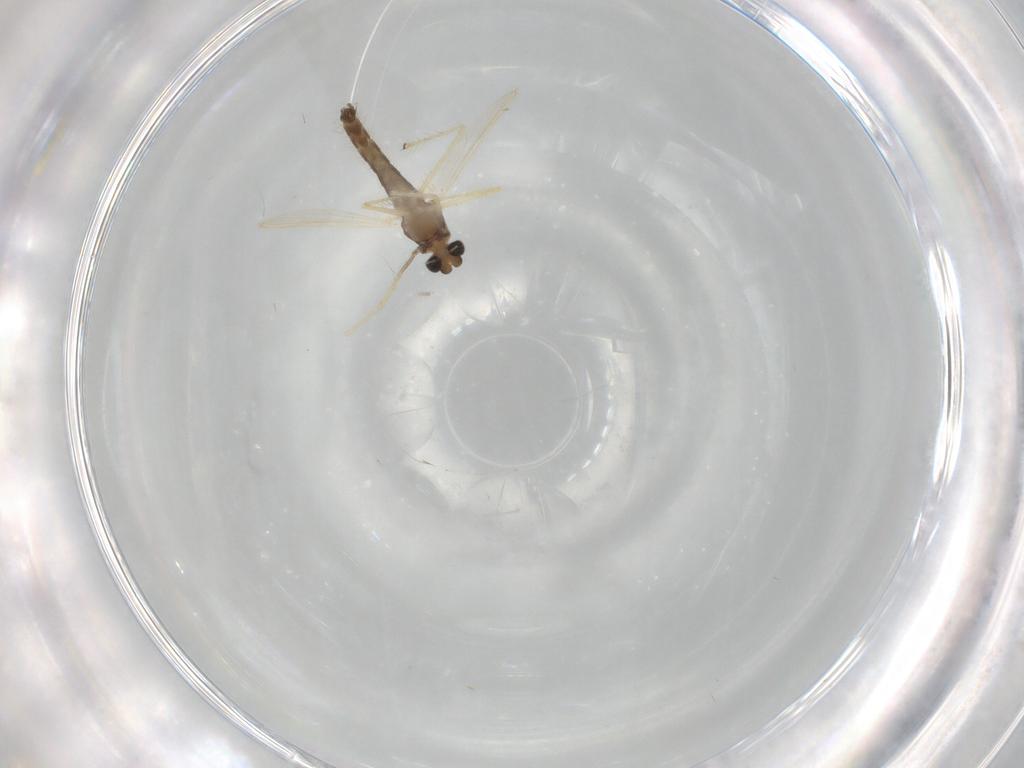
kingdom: Animalia
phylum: Arthropoda
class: Insecta
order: Diptera
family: Chironomidae
